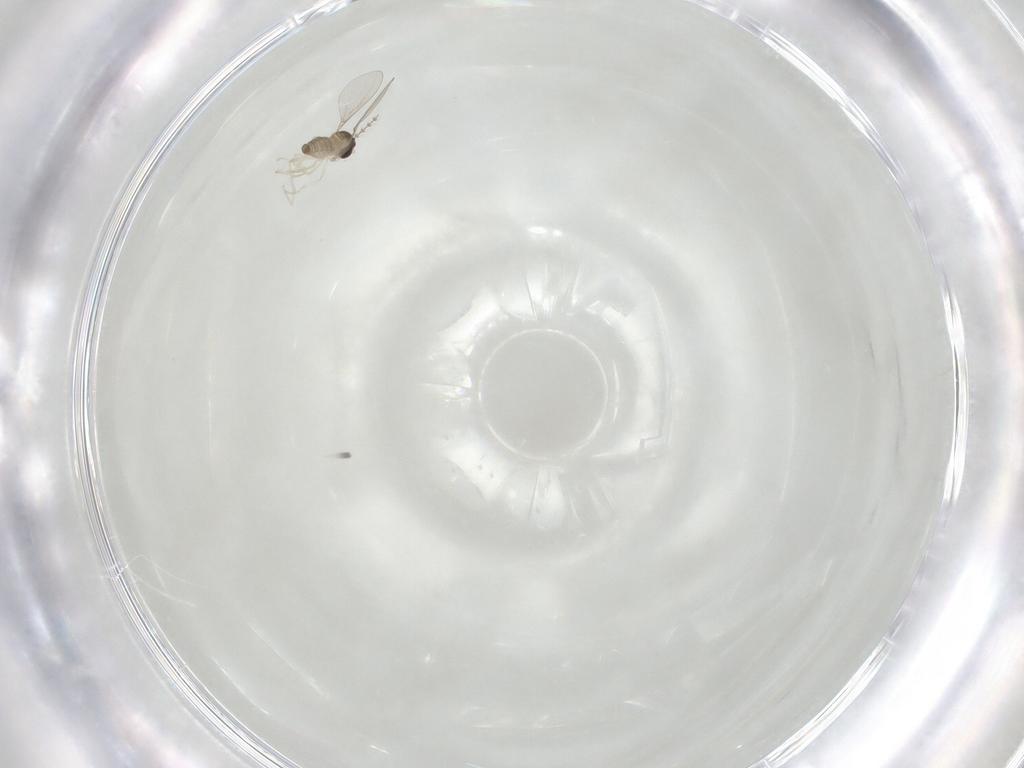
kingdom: Animalia
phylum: Arthropoda
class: Insecta
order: Diptera
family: Cecidomyiidae
